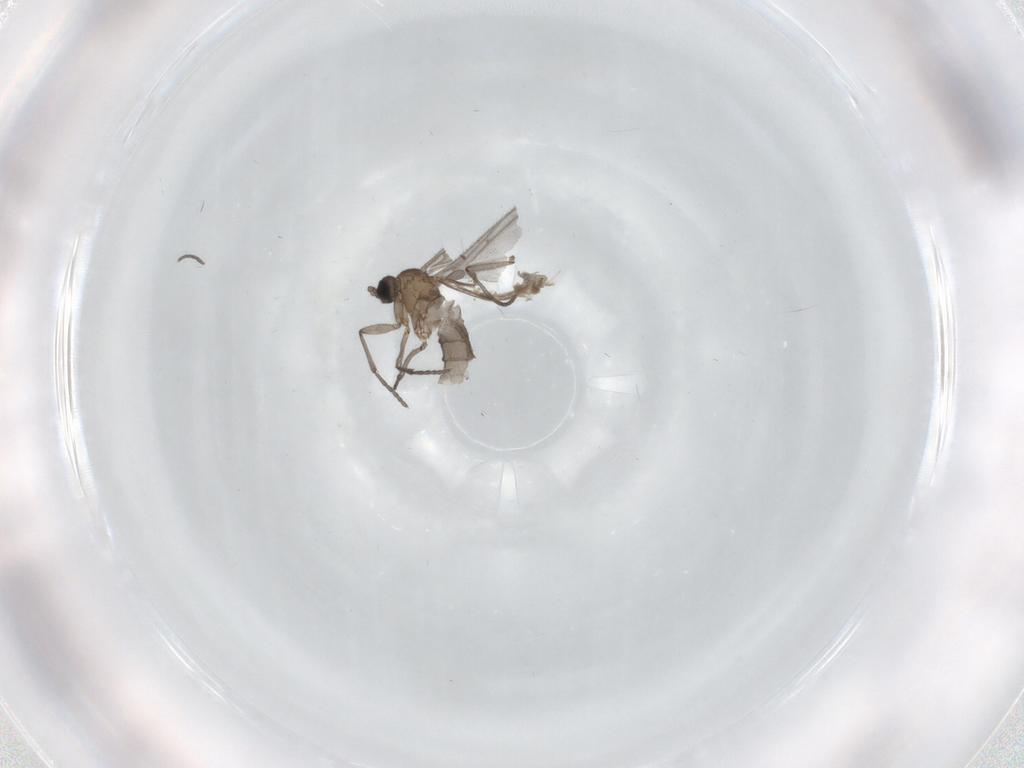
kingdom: Animalia
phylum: Arthropoda
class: Insecta
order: Diptera
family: Sciaridae
